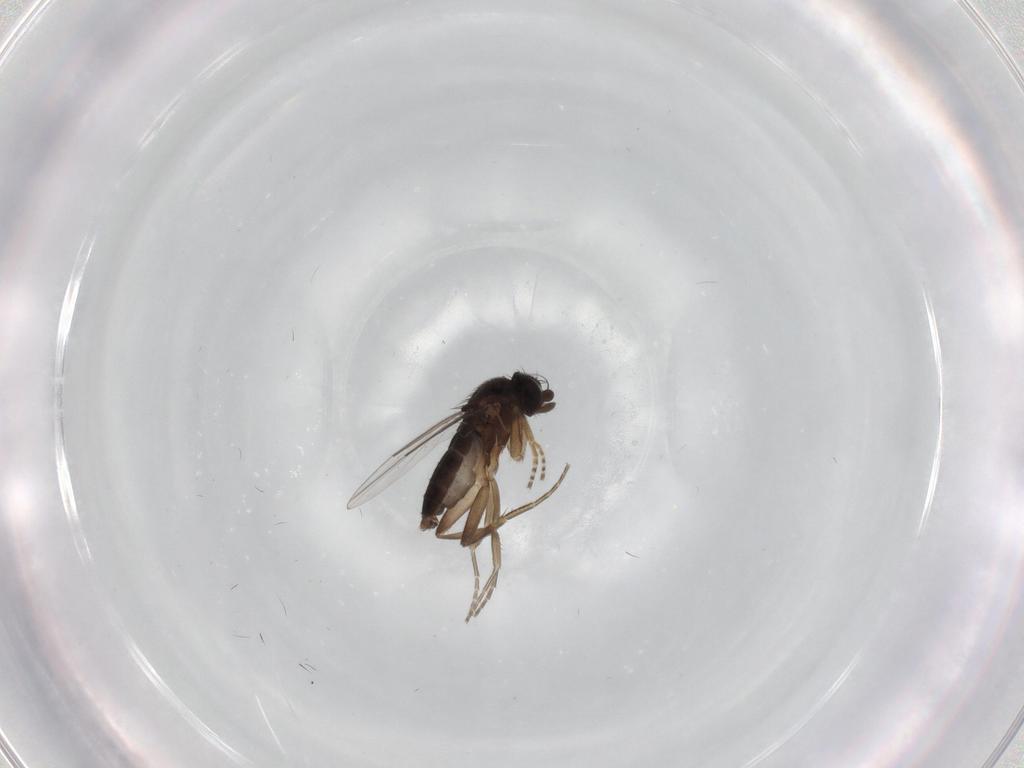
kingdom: Animalia
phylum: Arthropoda
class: Insecta
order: Diptera
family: Phoridae
